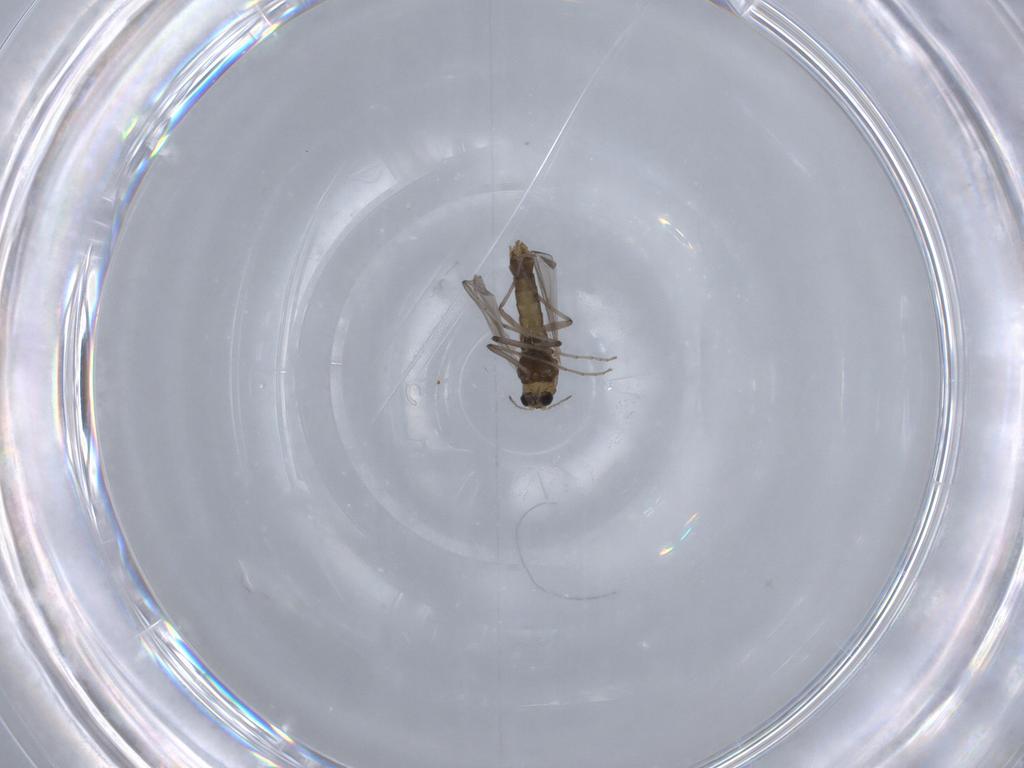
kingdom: Animalia
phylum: Arthropoda
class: Insecta
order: Diptera
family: Chironomidae
